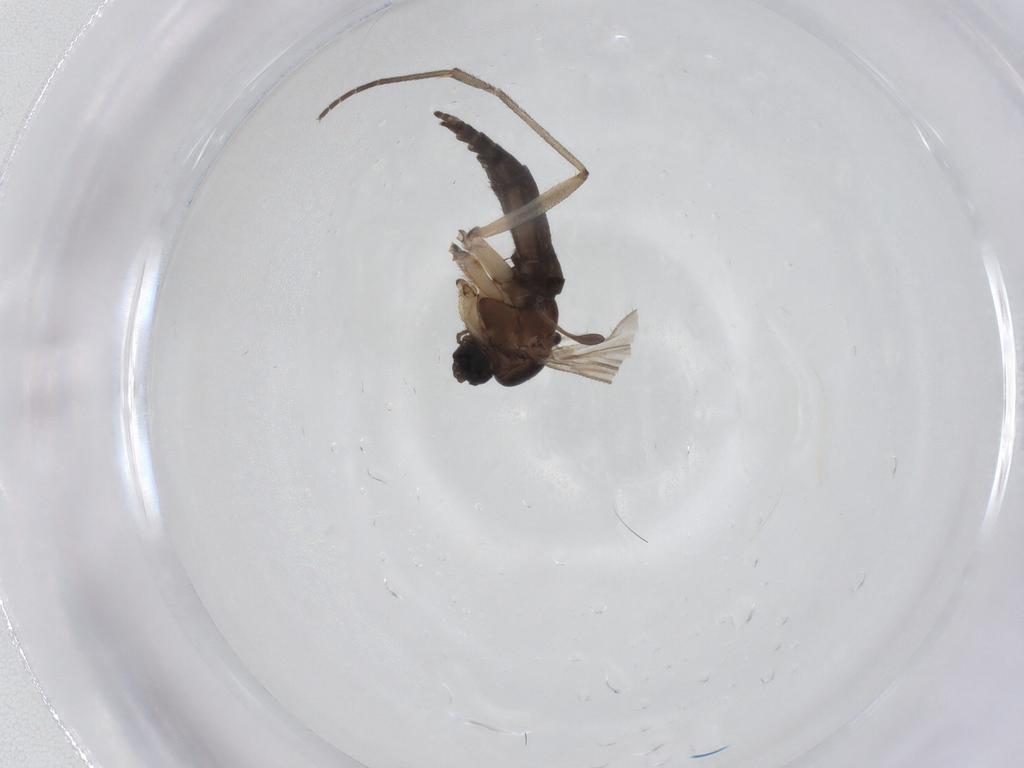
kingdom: Animalia
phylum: Arthropoda
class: Insecta
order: Diptera
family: Sciaridae
